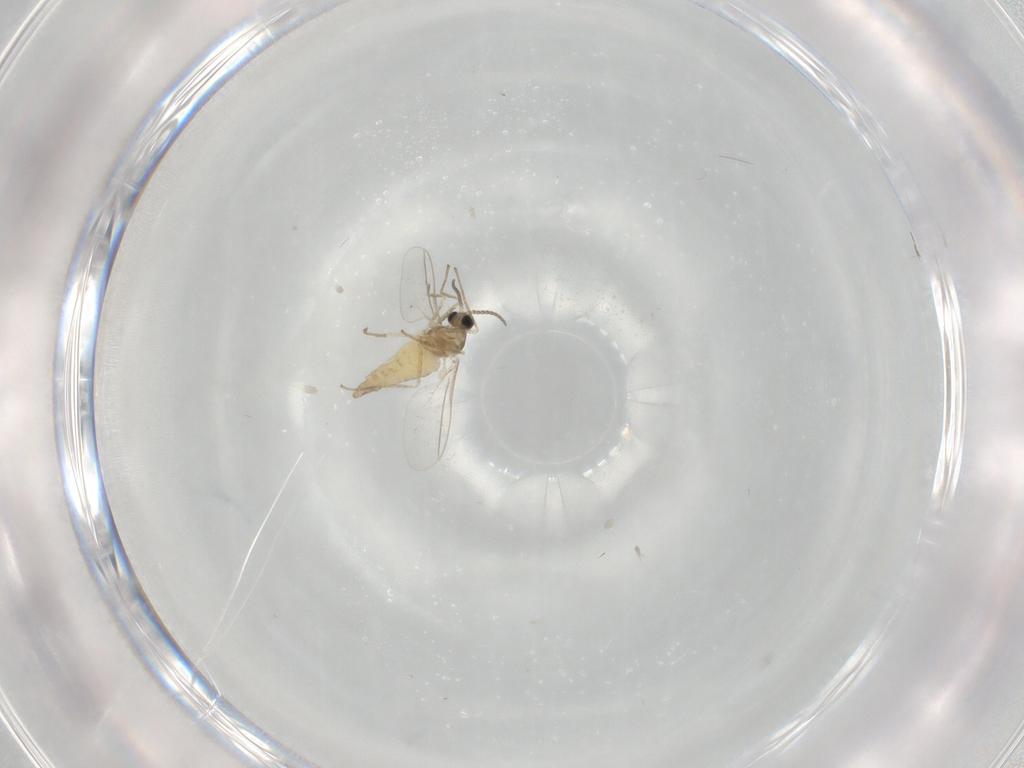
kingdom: Animalia
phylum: Arthropoda
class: Insecta
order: Diptera
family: Cecidomyiidae
